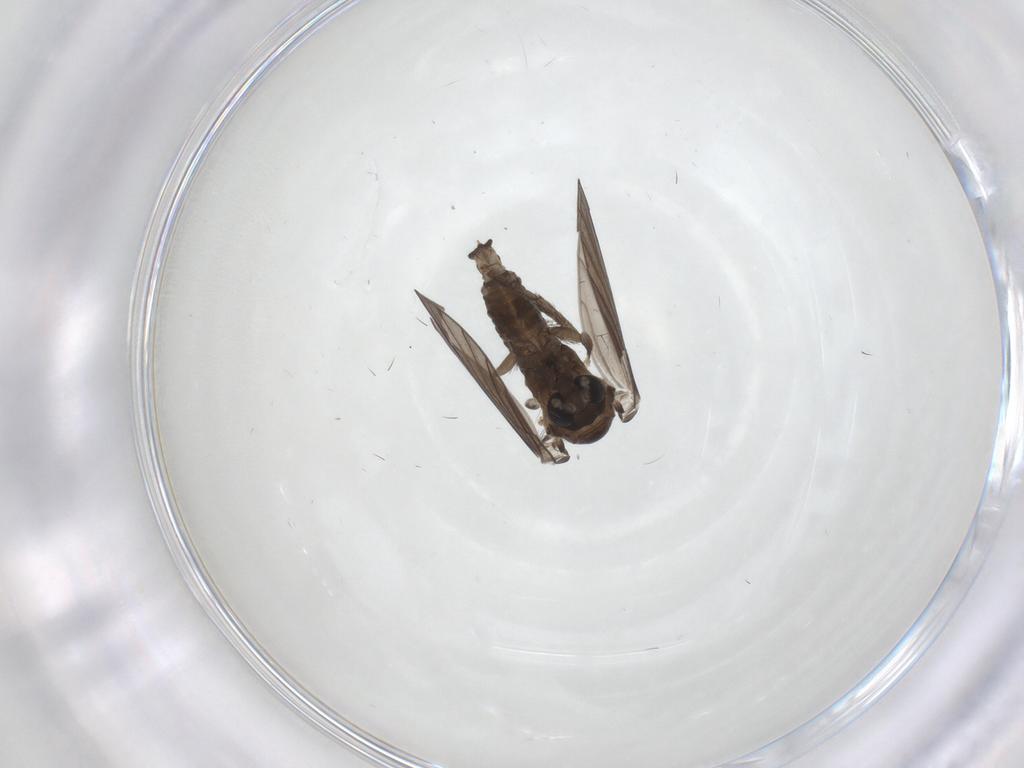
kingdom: Animalia
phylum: Arthropoda
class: Insecta
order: Diptera
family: Psychodidae
